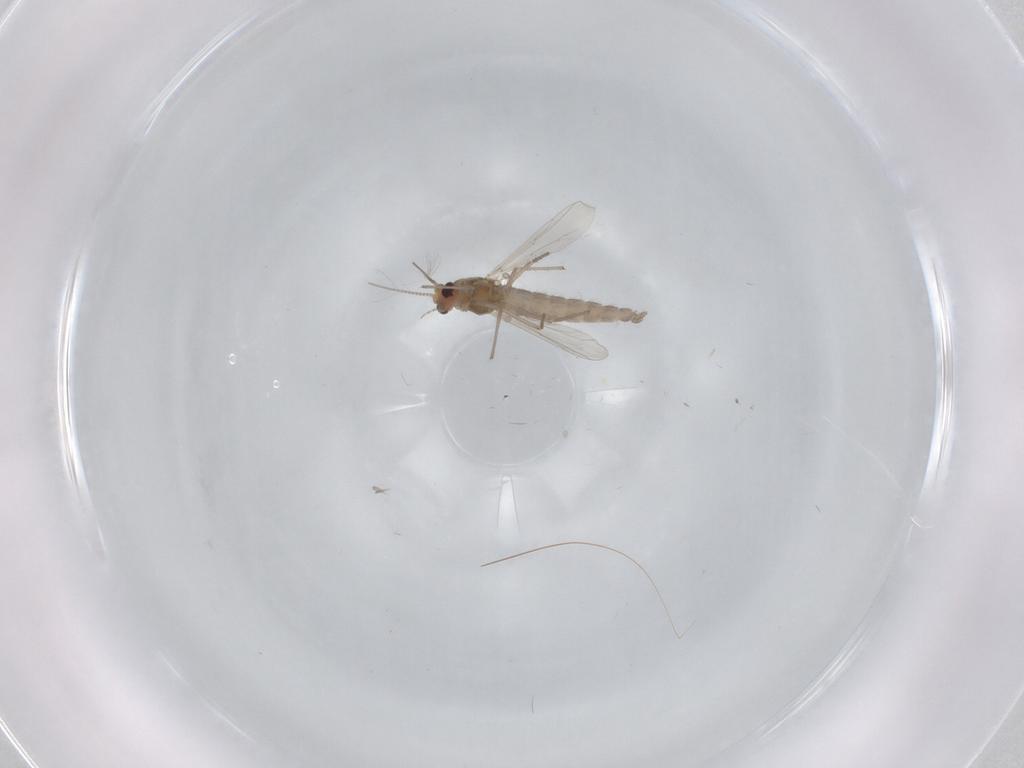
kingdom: Animalia
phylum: Arthropoda
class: Insecta
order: Diptera
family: Chironomidae
